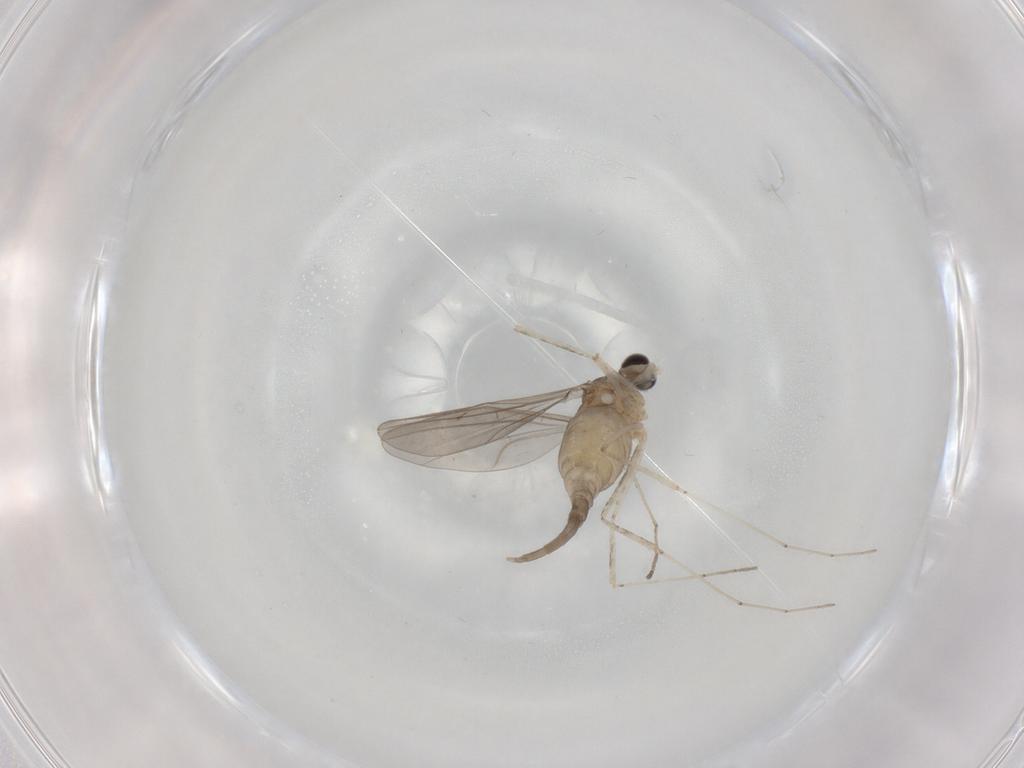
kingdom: Animalia
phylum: Arthropoda
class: Insecta
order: Diptera
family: Cecidomyiidae
